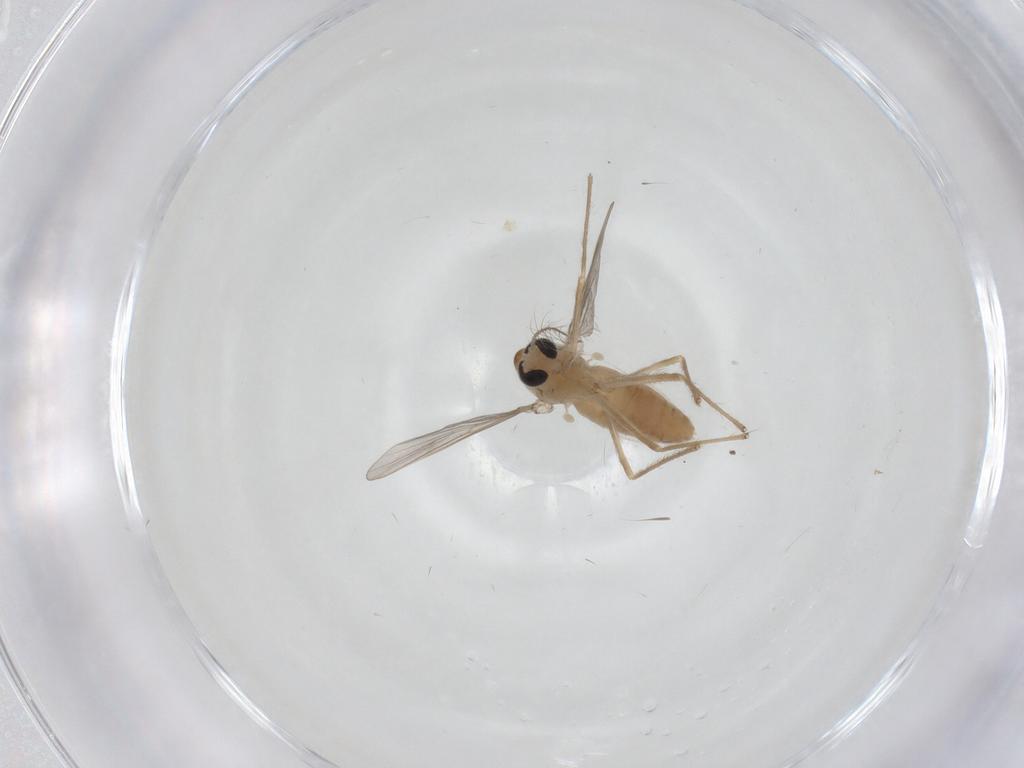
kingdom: Animalia
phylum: Arthropoda
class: Insecta
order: Diptera
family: Chironomidae
